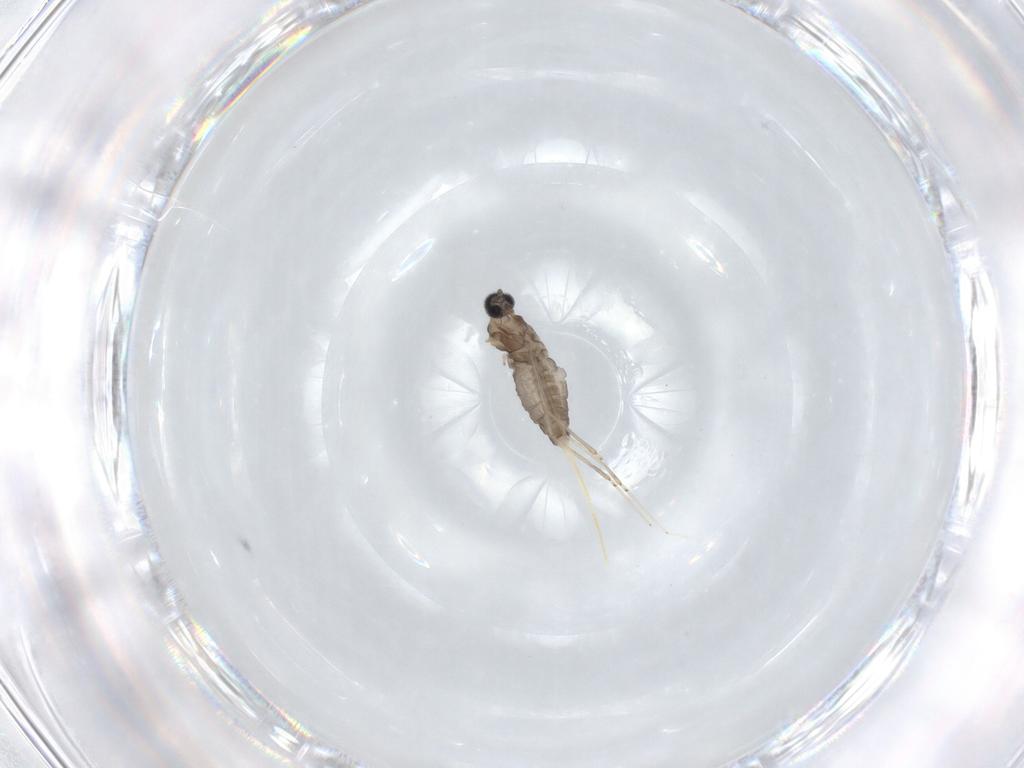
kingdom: Animalia
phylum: Arthropoda
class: Insecta
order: Diptera
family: Cecidomyiidae
